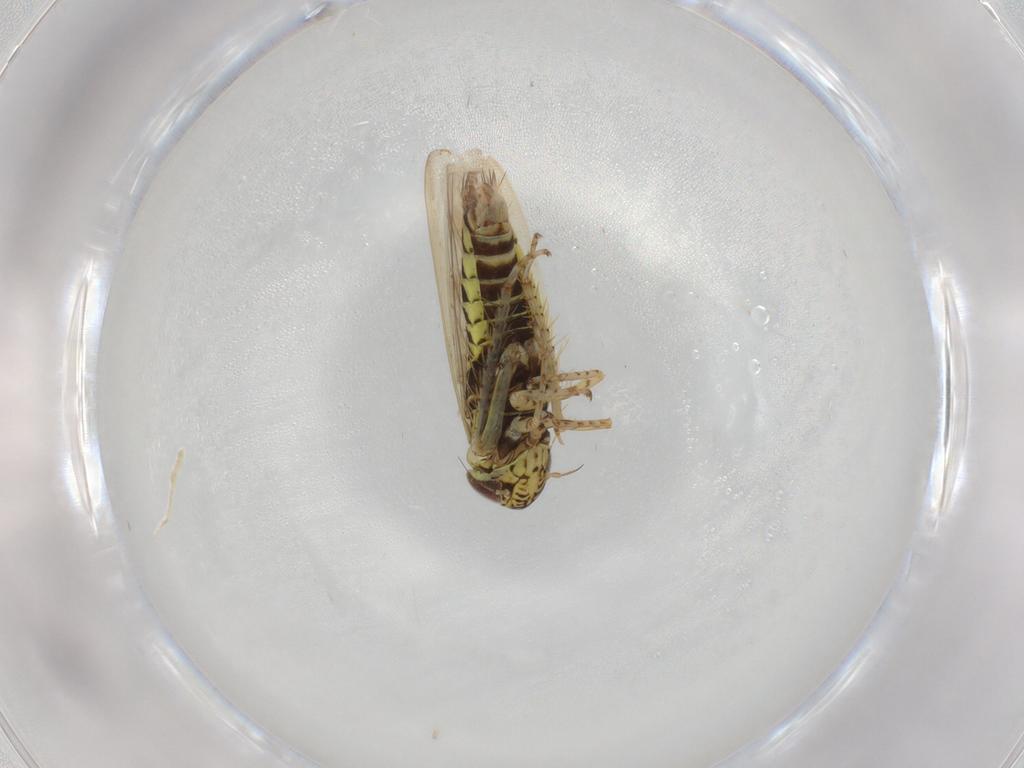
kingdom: Animalia
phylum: Arthropoda
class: Insecta
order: Hemiptera
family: Cicadellidae
